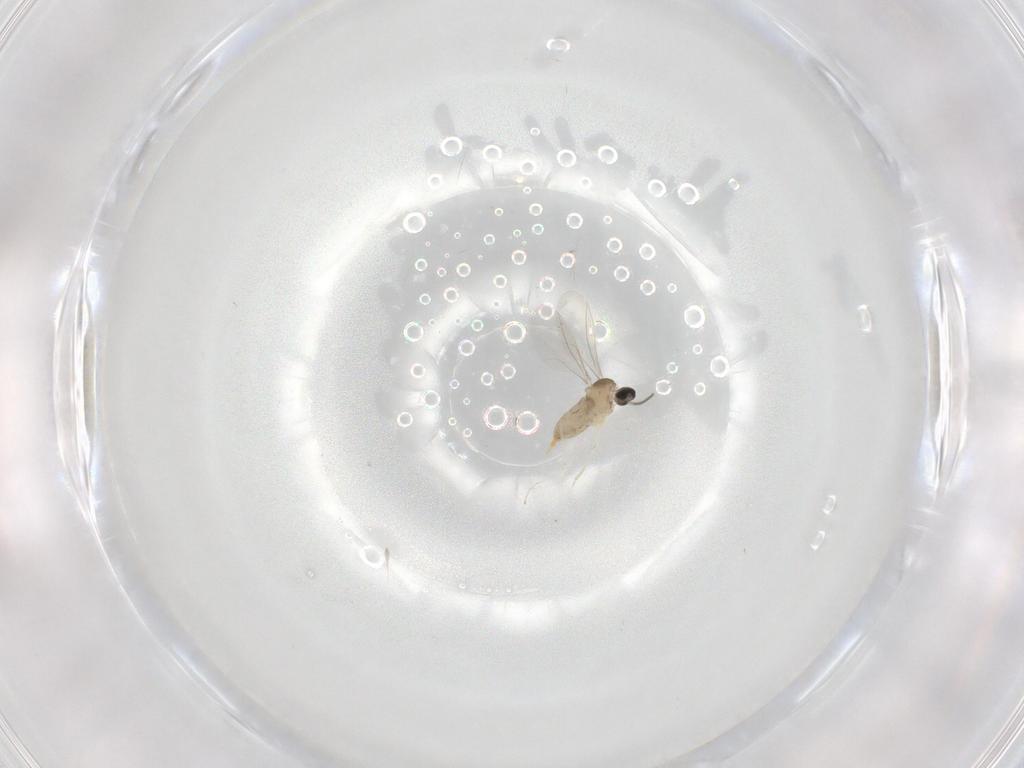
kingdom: Animalia
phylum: Arthropoda
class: Insecta
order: Diptera
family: Cecidomyiidae
